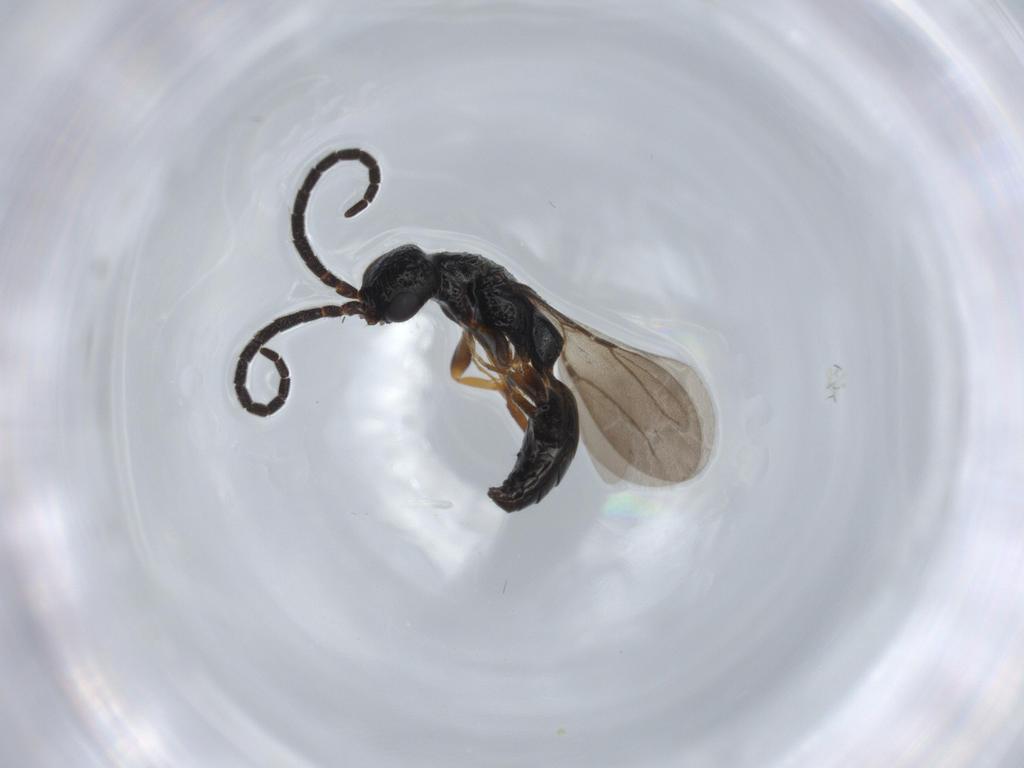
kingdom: Animalia
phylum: Arthropoda
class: Insecta
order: Hymenoptera
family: Bethylidae
